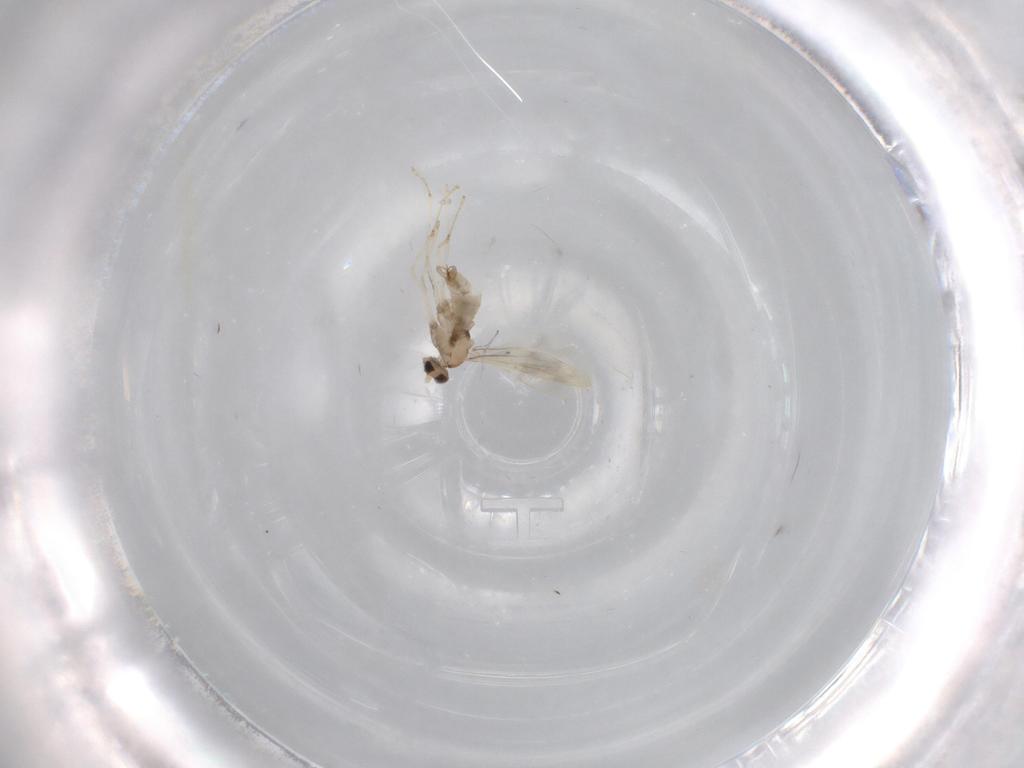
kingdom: Animalia
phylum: Arthropoda
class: Insecta
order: Diptera
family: Cecidomyiidae
